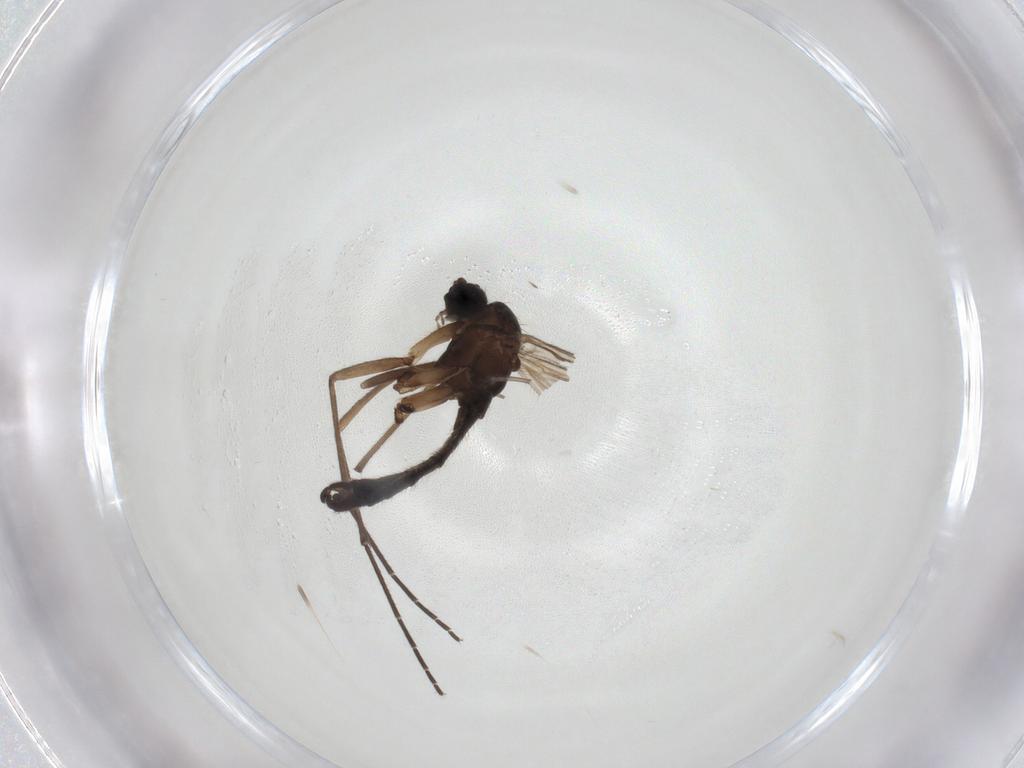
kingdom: Animalia
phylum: Arthropoda
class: Insecta
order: Diptera
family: Sciaridae
